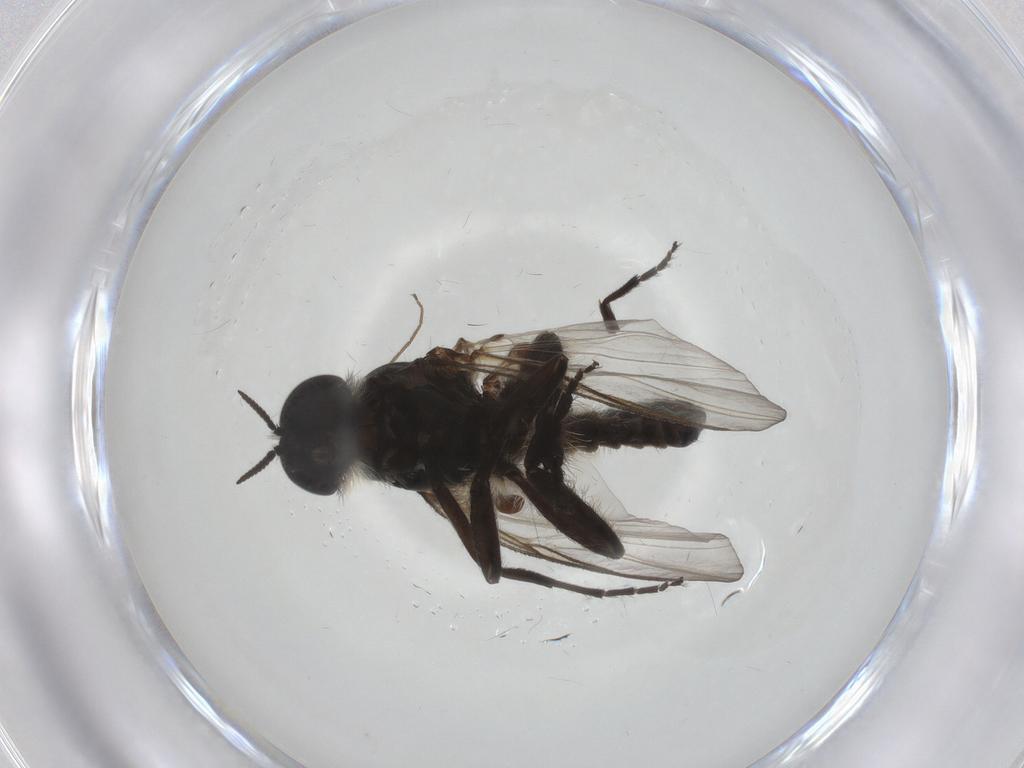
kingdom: Animalia
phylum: Arthropoda
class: Insecta
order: Diptera
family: Simuliidae
